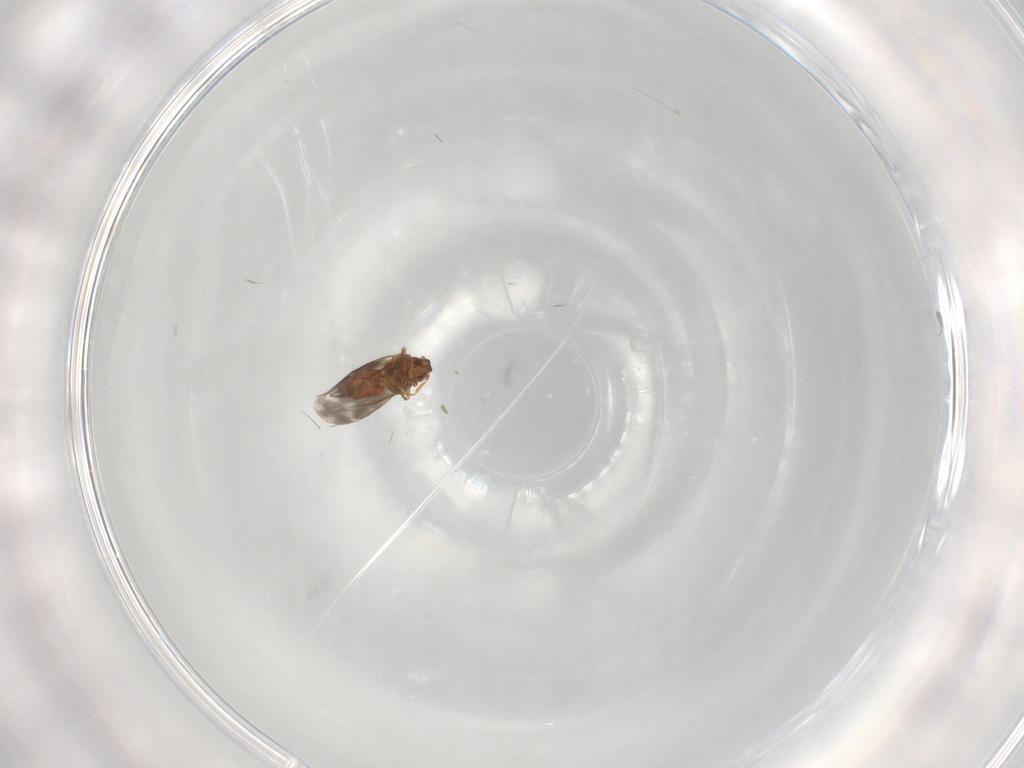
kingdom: Animalia
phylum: Arthropoda
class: Insecta
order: Hemiptera
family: Aleyrodidae
